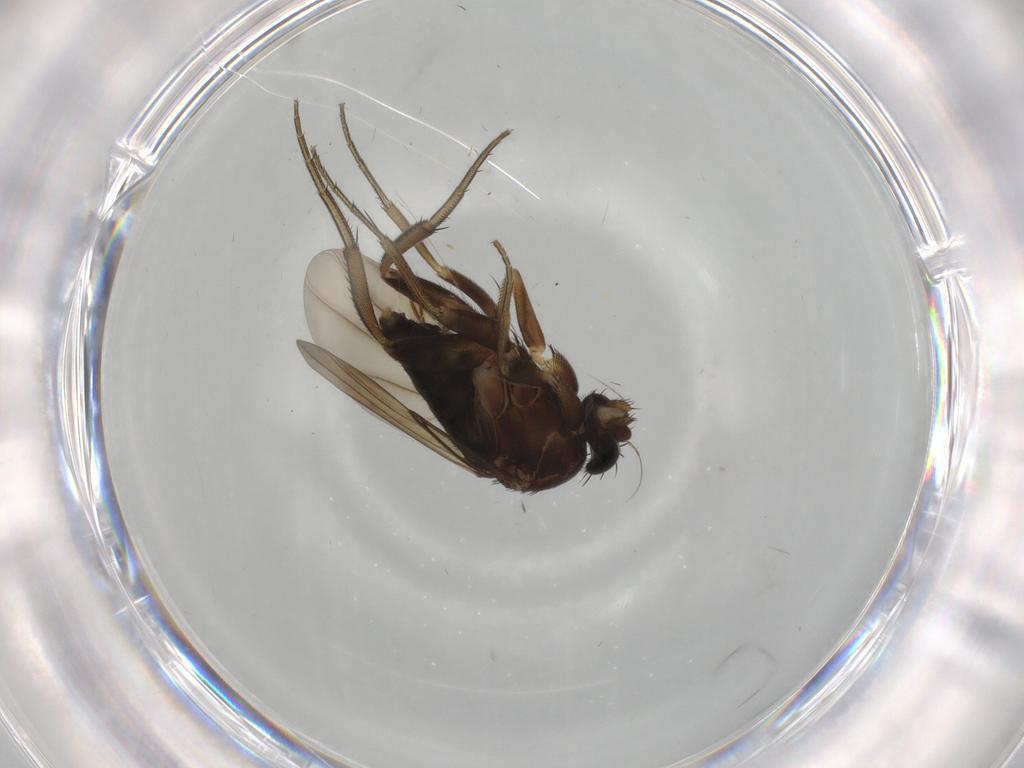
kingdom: Animalia
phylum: Arthropoda
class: Insecta
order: Diptera
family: Phoridae
